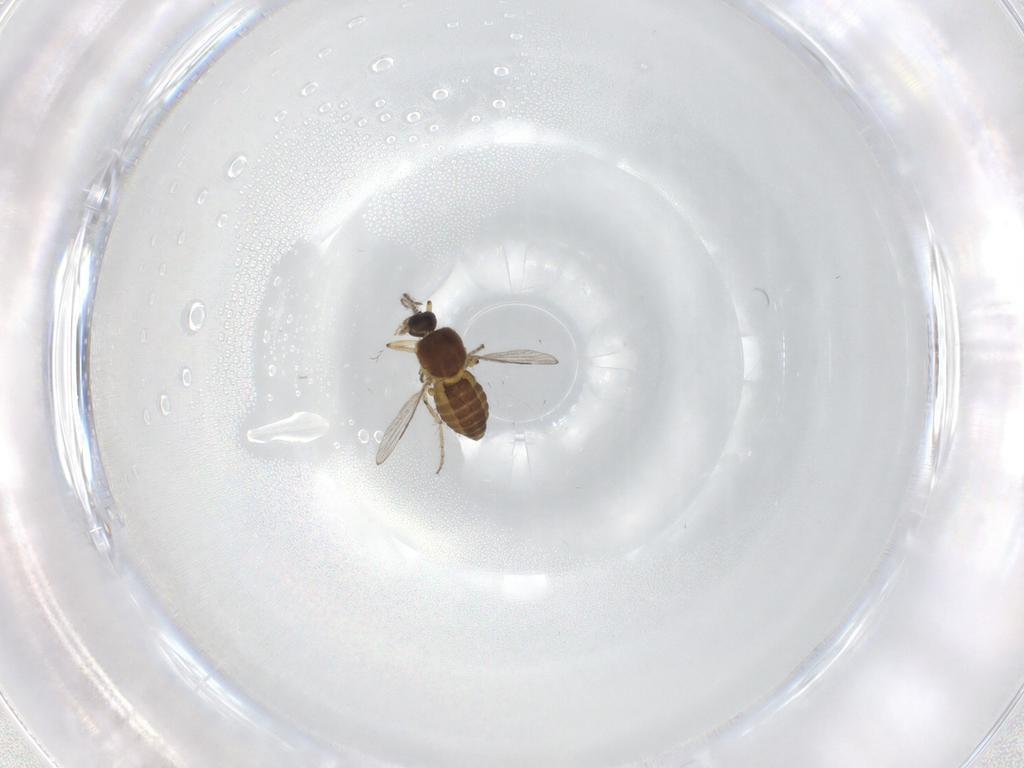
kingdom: Animalia
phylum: Arthropoda
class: Insecta
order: Diptera
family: Ceratopogonidae
